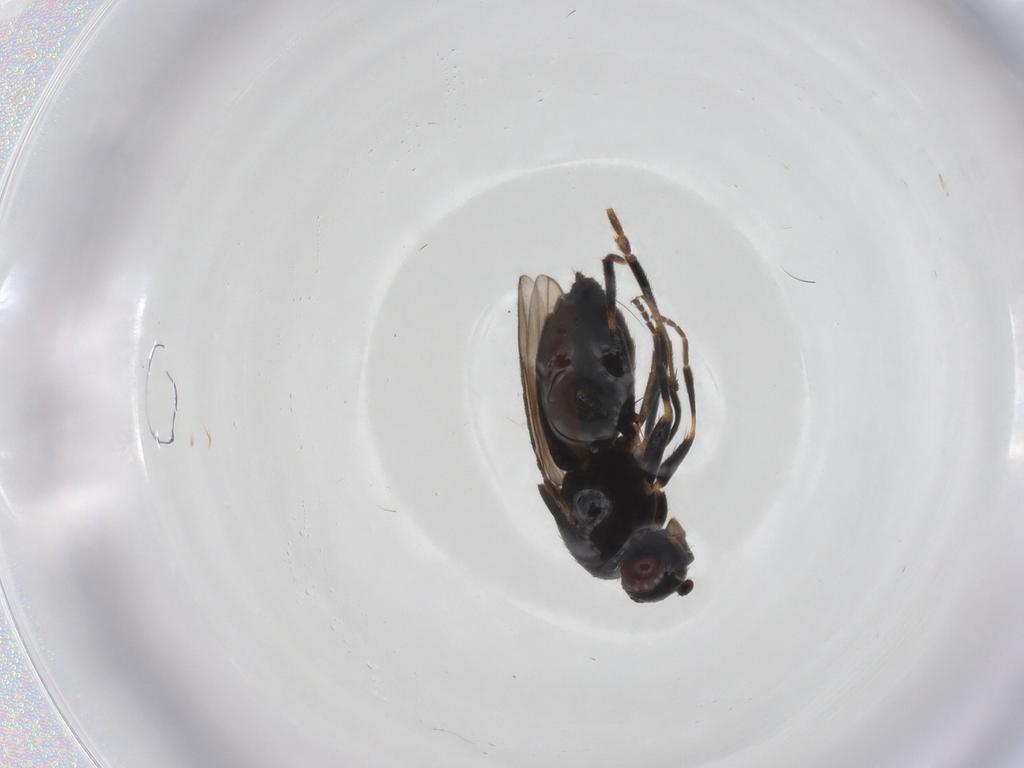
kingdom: Animalia
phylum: Arthropoda
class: Insecta
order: Diptera
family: Sphaeroceridae
